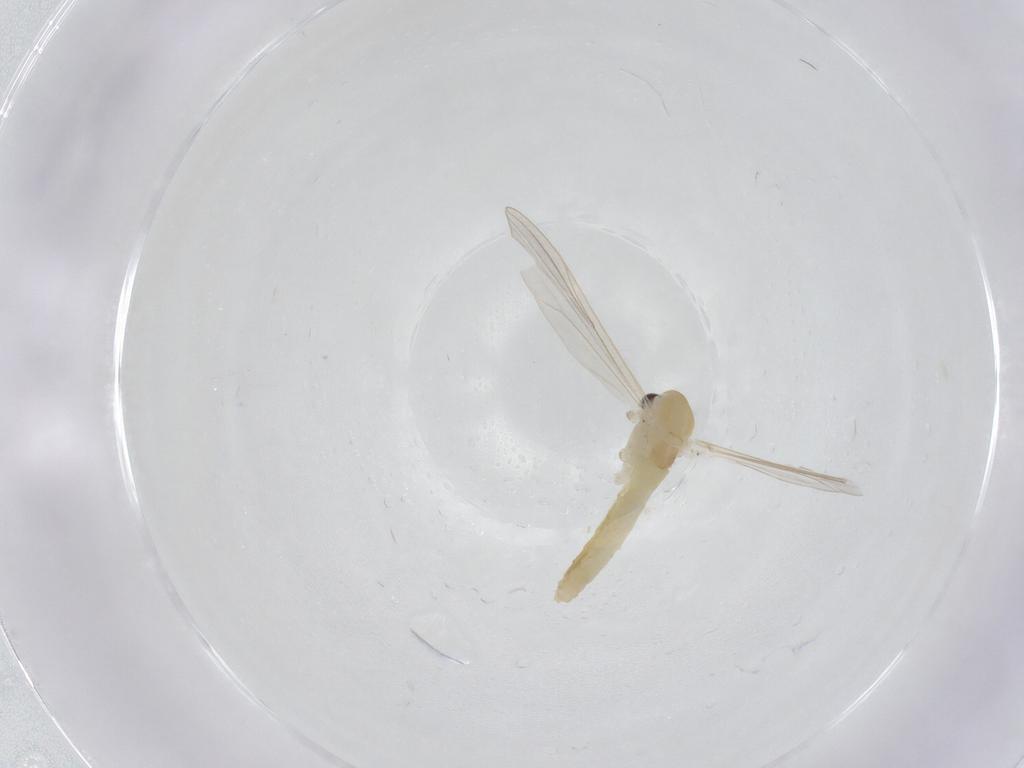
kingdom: Animalia
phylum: Arthropoda
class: Insecta
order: Diptera
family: Chironomidae
